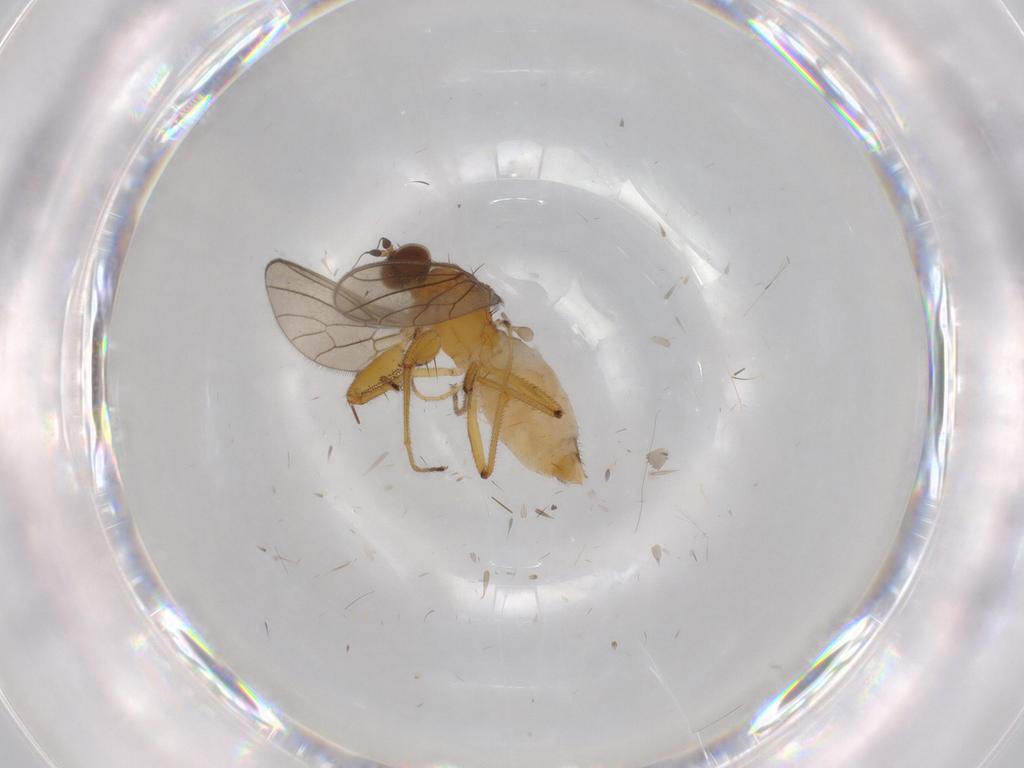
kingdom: Animalia
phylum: Arthropoda
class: Insecta
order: Diptera
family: Empididae
